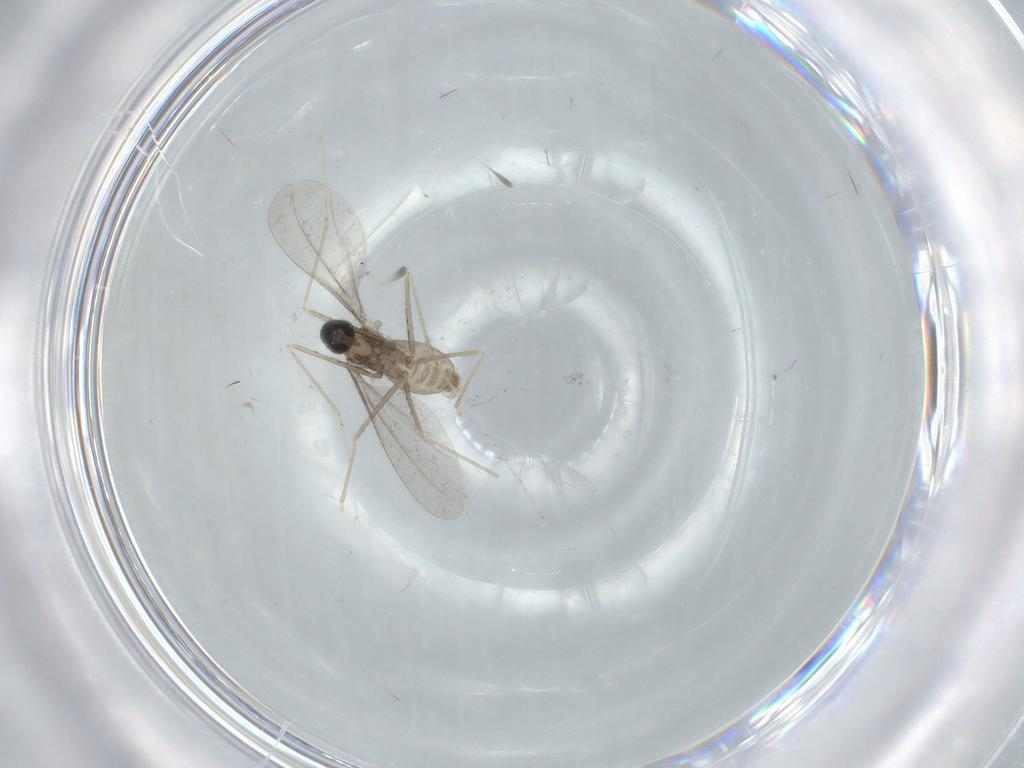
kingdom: Animalia
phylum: Arthropoda
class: Insecta
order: Diptera
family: Cecidomyiidae
